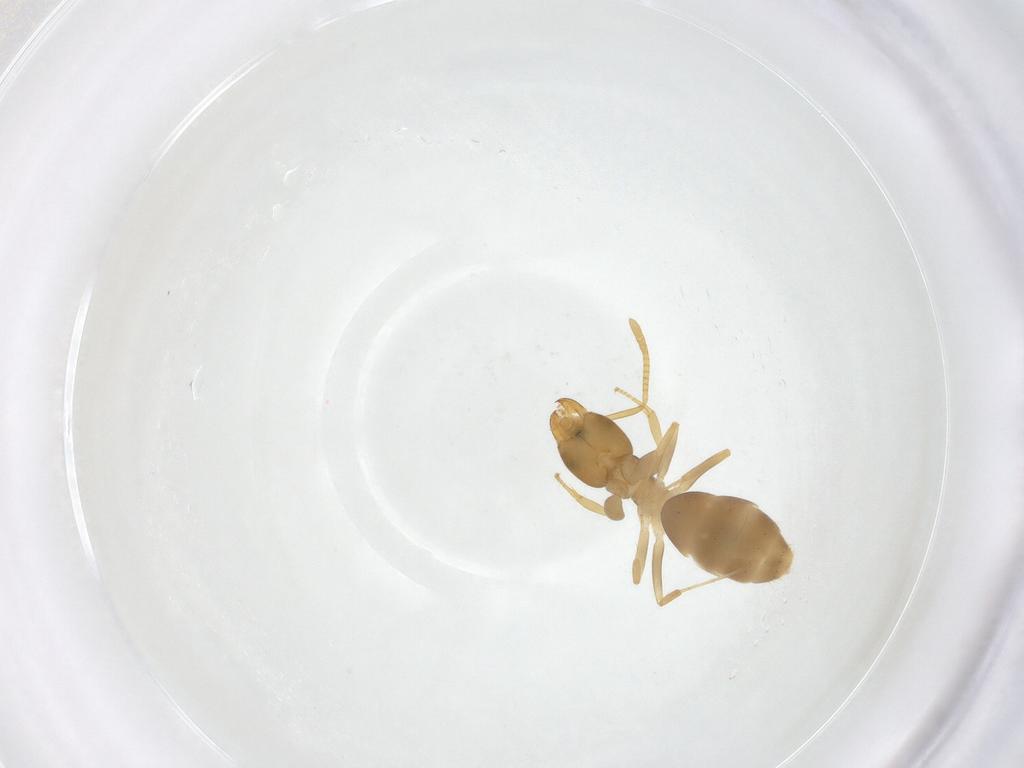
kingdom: Animalia
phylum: Arthropoda
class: Insecta
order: Hymenoptera
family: Formicidae
